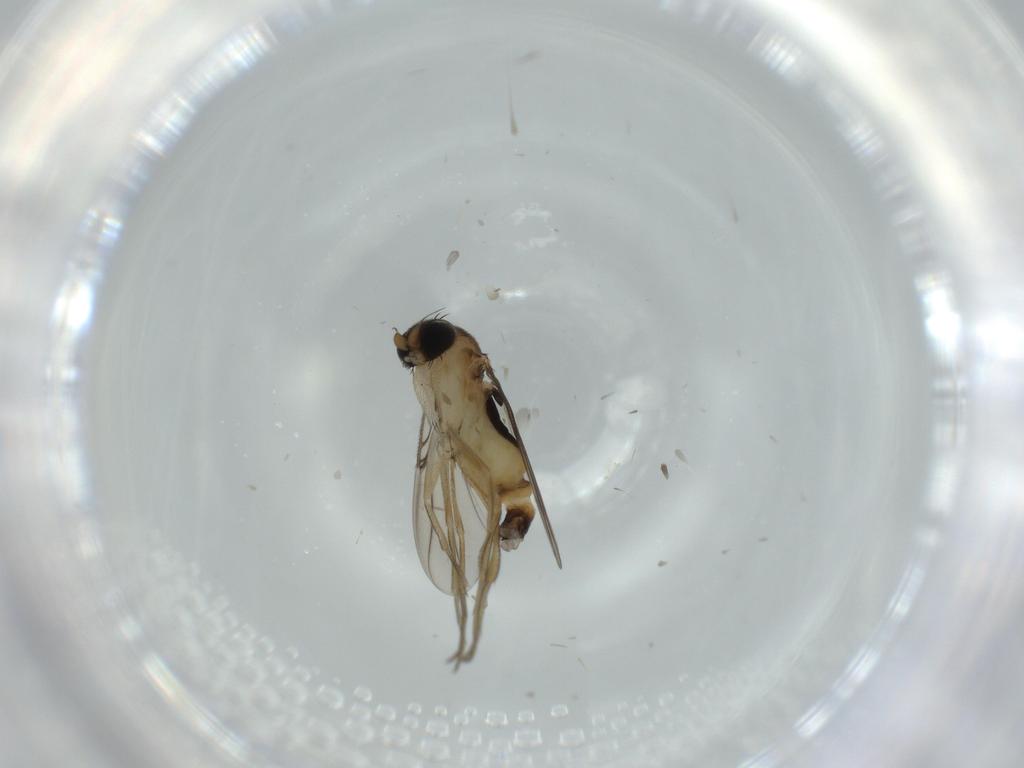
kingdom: Animalia
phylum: Arthropoda
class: Insecta
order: Diptera
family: Phoridae
